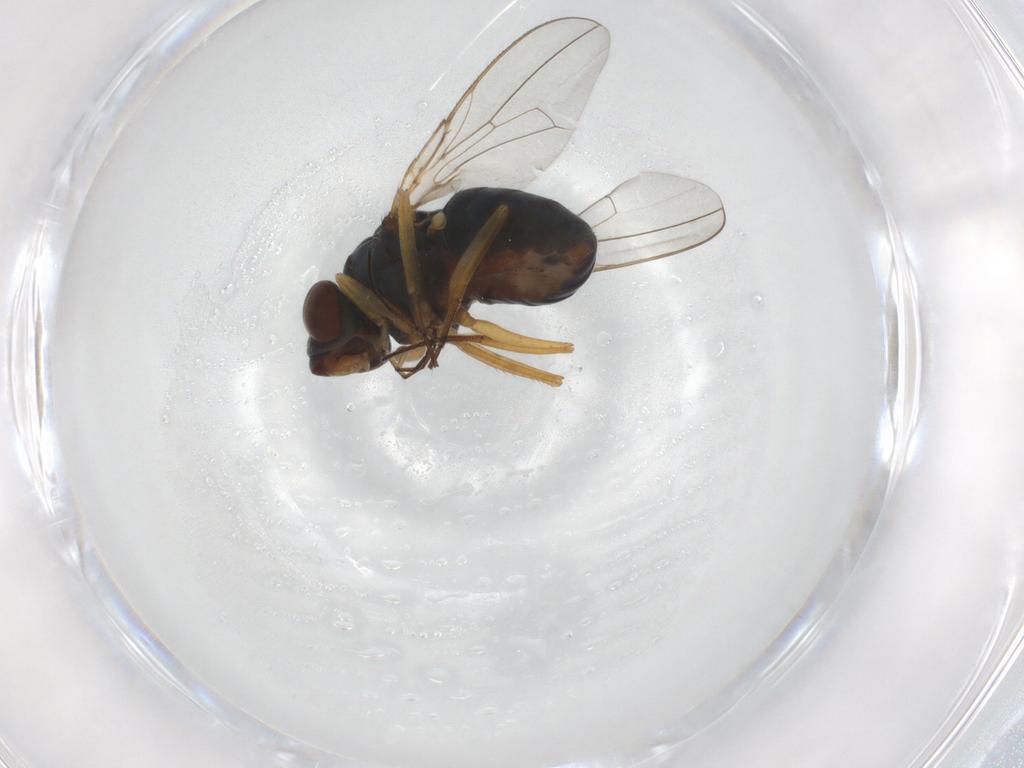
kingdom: Animalia
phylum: Arthropoda
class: Insecta
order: Diptera
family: Ephydridae
